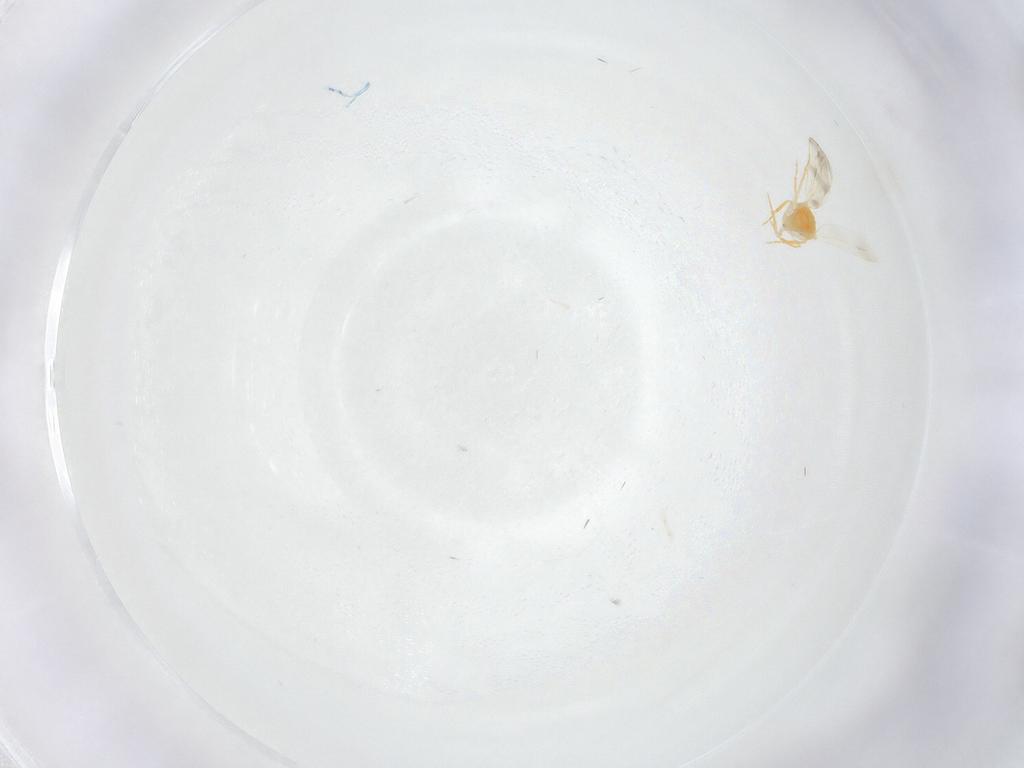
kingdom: Animalia
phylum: Arthropoda
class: Insecta
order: Hemiptera
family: Aleyrodidae
